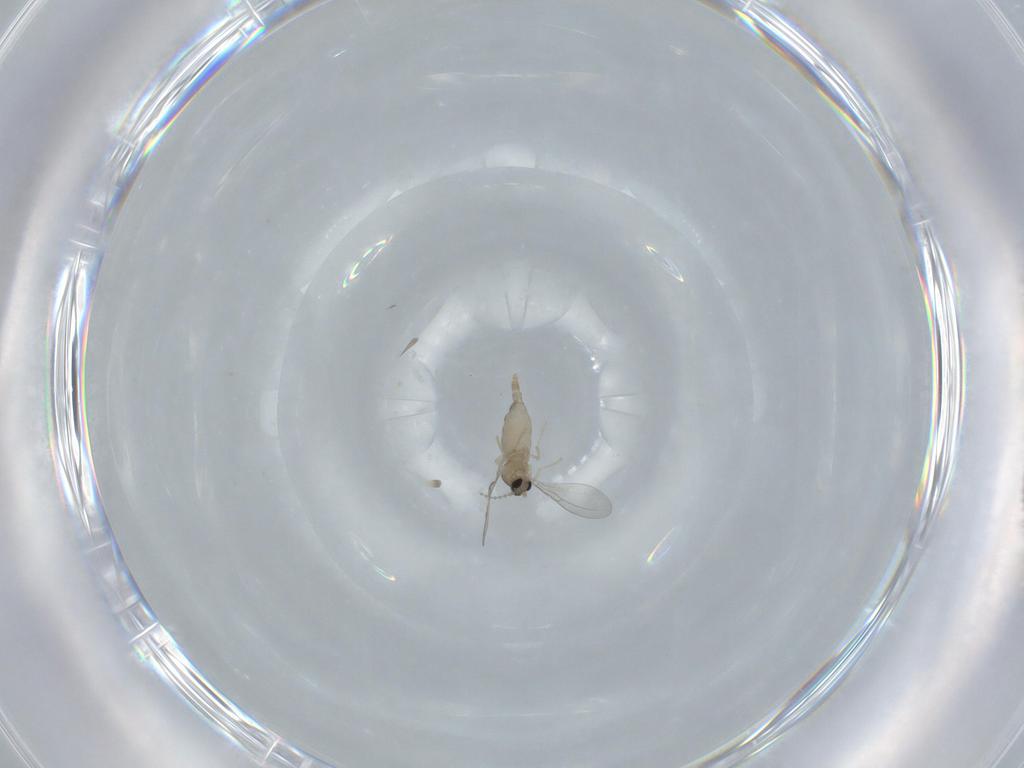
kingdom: Animalia
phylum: Arthropoda
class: Insecta
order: Diptera
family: Cecidomyiidae
